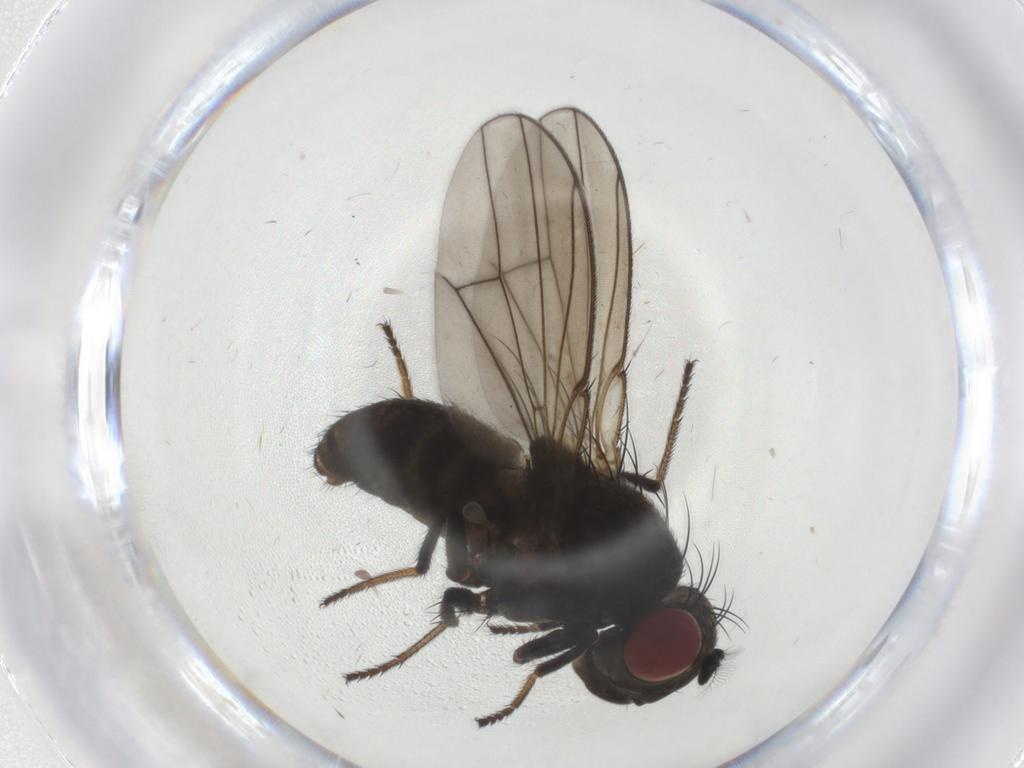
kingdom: Animalia
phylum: Arthropoda
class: Insecta
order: Diptera
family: Ephydridae
